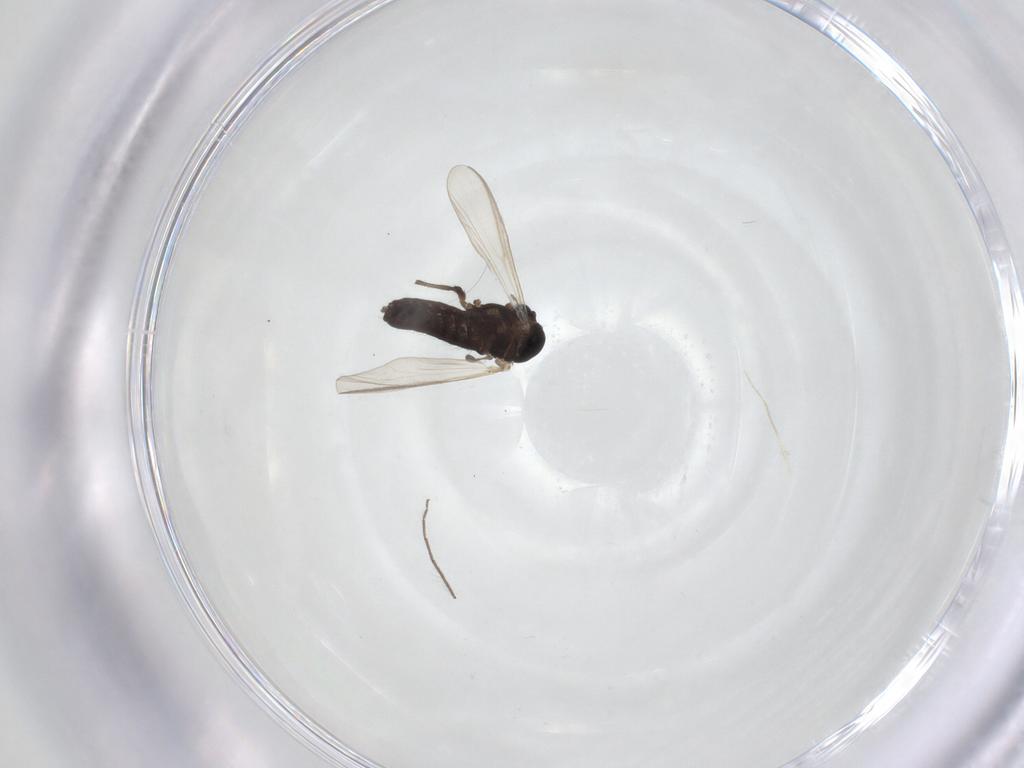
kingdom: Animalia
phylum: Arthropoda
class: Insecta
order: Diptera
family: Chironomidae
